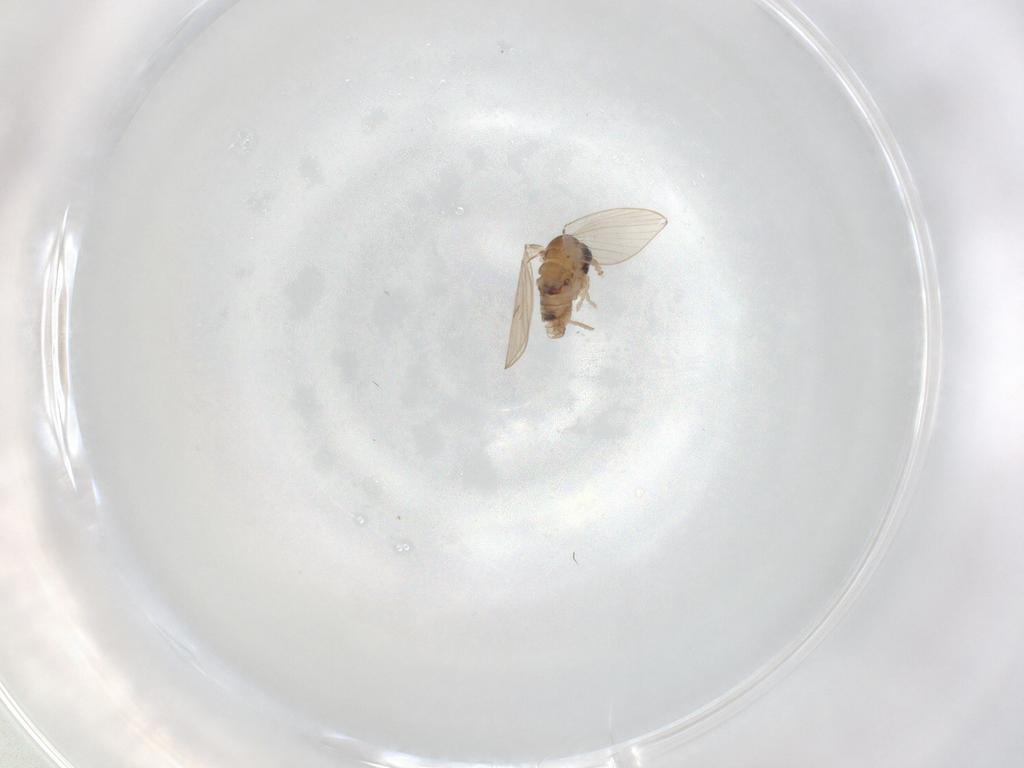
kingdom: Animalia
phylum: Arthropoda
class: Insecta
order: Diptera
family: Psychodidae
